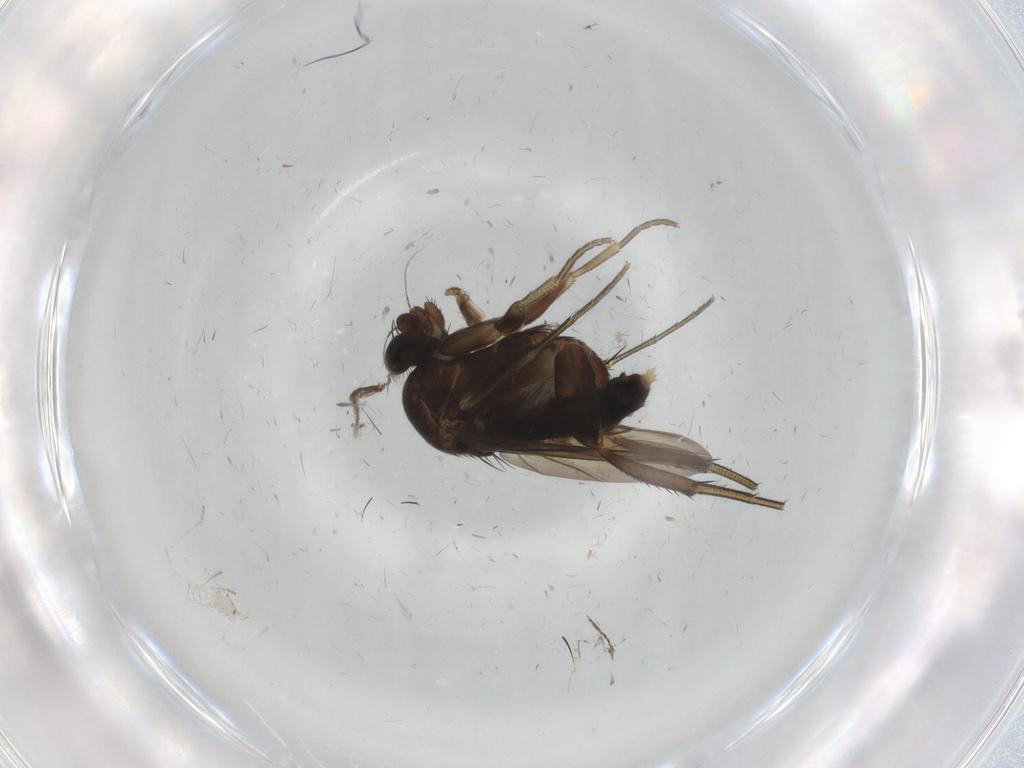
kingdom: Animalia
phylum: Arthropoda
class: Insecta
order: Diptera
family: Phoridae
